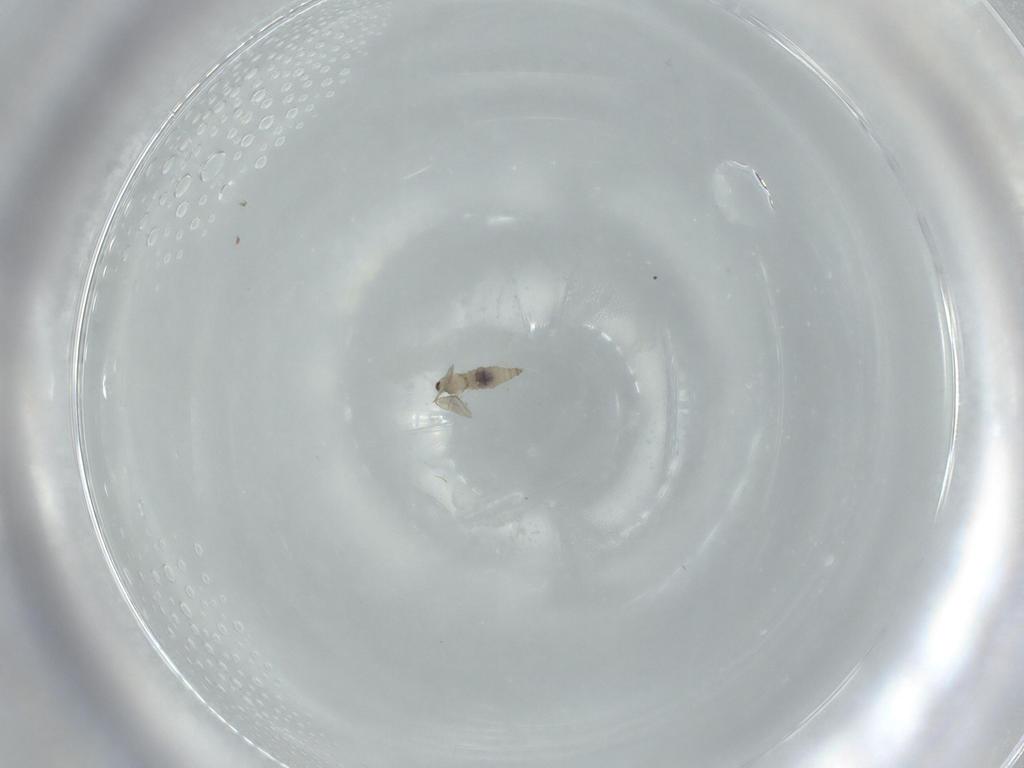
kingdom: Animalia
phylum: Arthropoda
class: Insecta
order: Diptera
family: Cecidomyiidae
